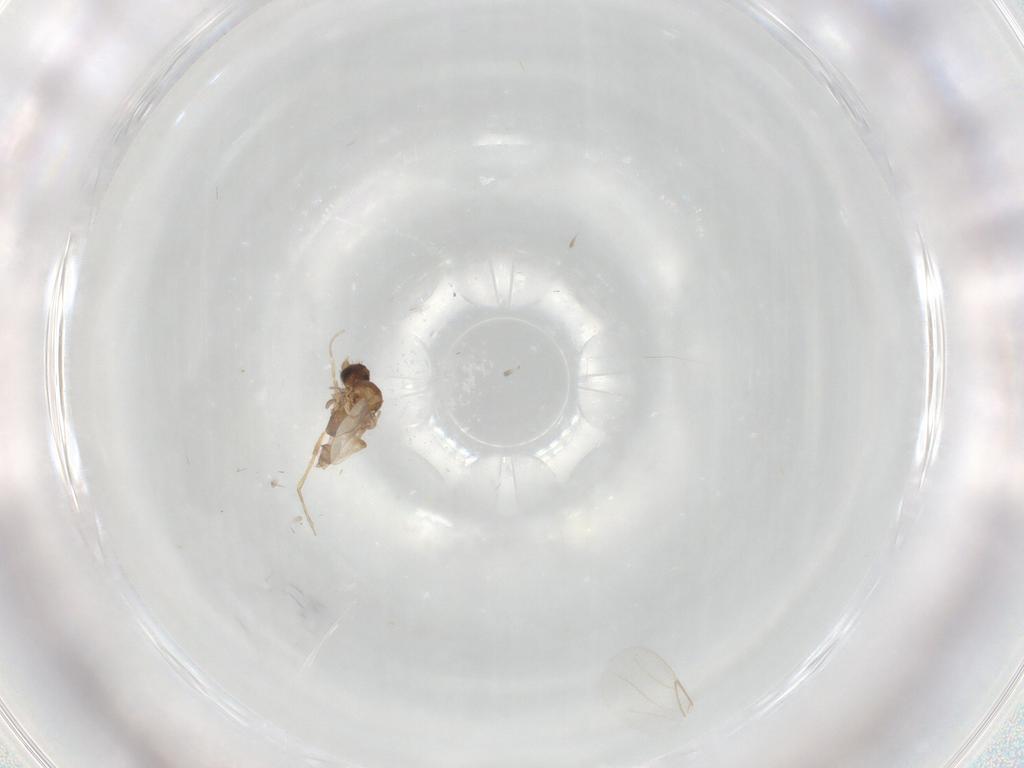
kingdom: Animalia
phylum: Arthropoda
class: Insecta
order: Diptera
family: Phoridae
